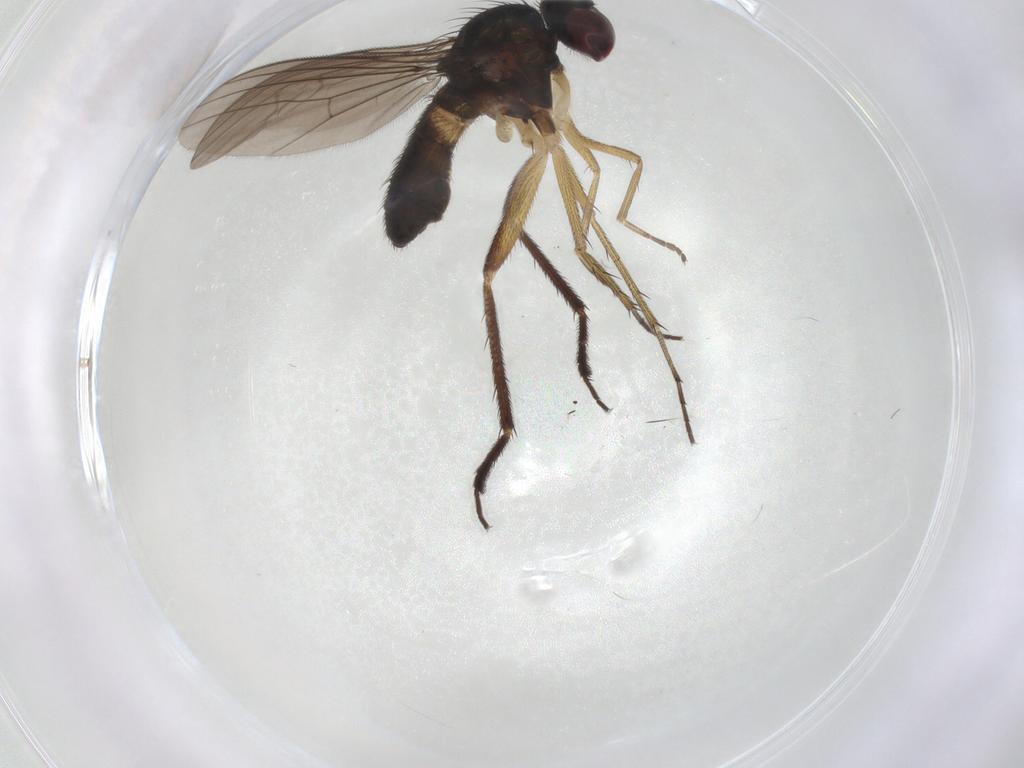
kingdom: Animalia
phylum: Arthropoda
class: Insecta
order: Diptera
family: Dolichopodidae
